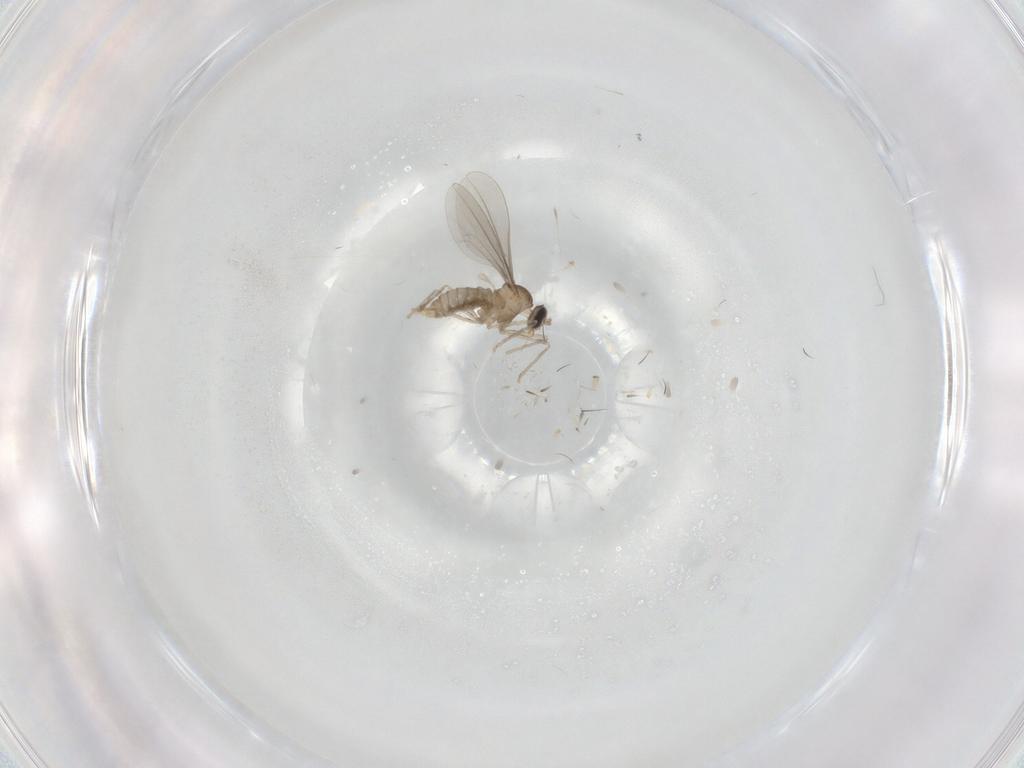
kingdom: Animalia
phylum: Arthropoda
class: Insecta
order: Diptera
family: Cecidomyiidae
